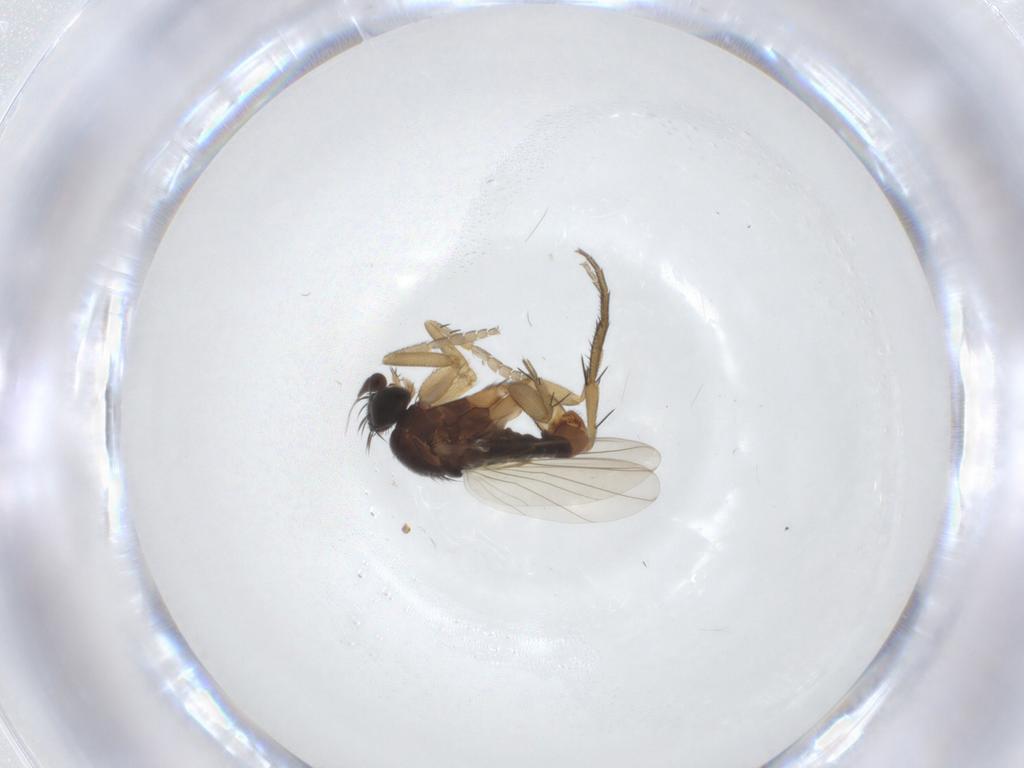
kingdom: Animalia
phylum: Arthropoda
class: Insecta
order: Diptera
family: Phoridae
